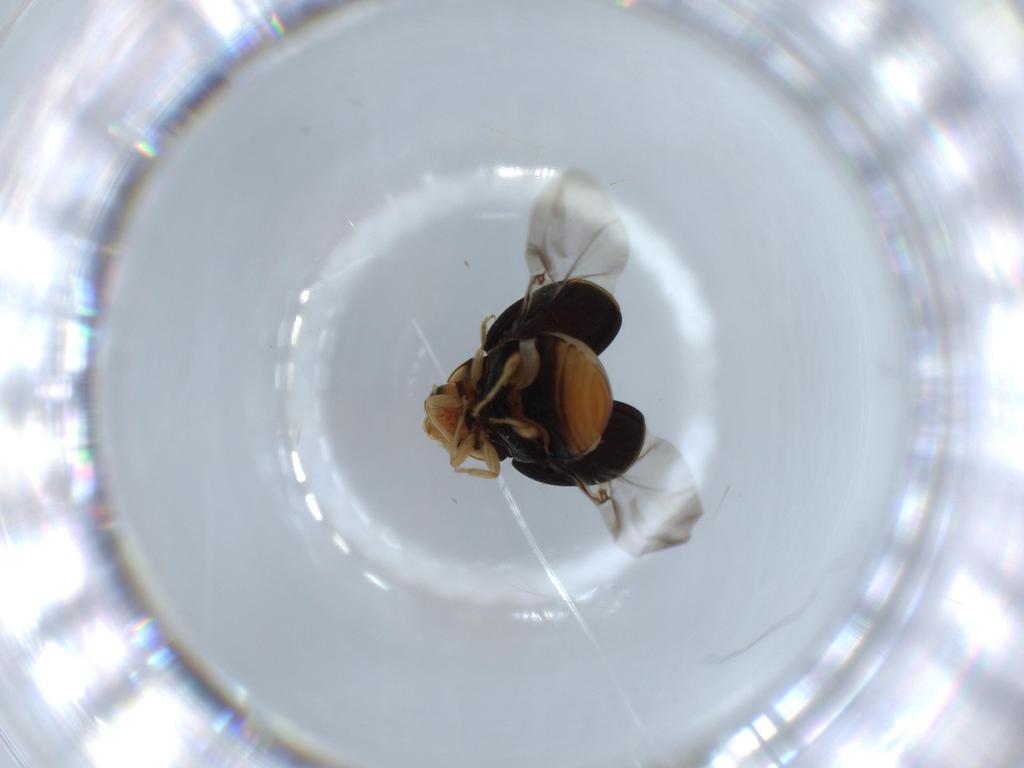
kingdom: Animalia
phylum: Arthropoda
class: Insecta
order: Coleoptera
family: Bostrichidae
